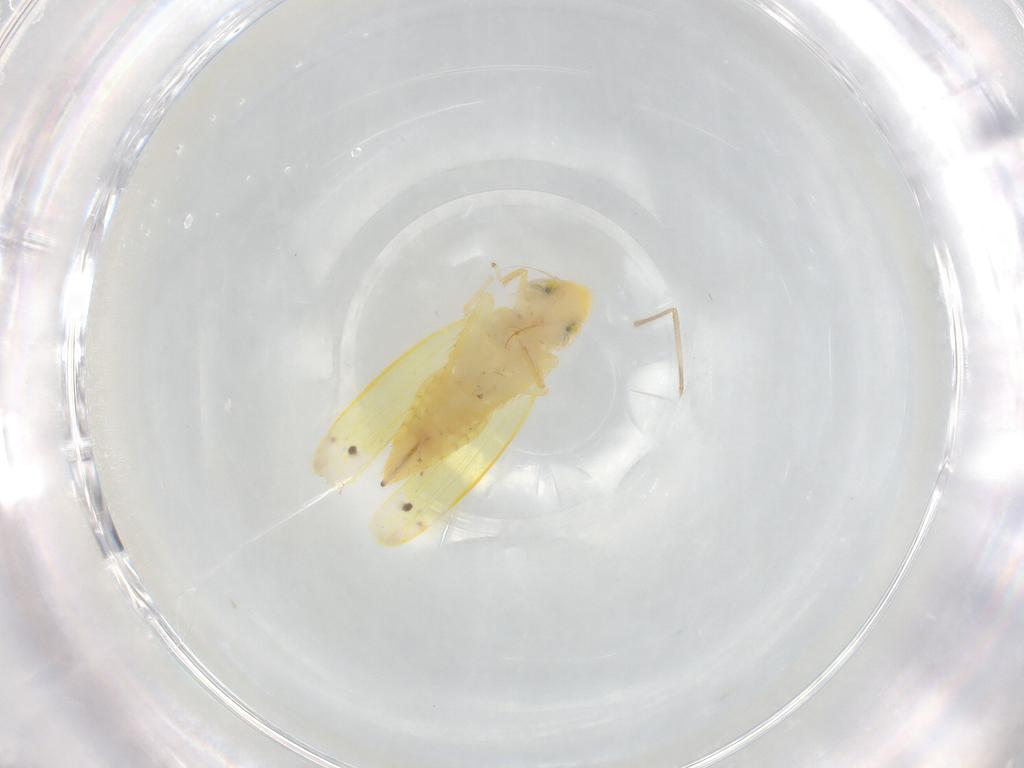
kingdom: Animalia
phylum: Arthropoda
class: Insecta
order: Hemiptera
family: Cicadellidae
